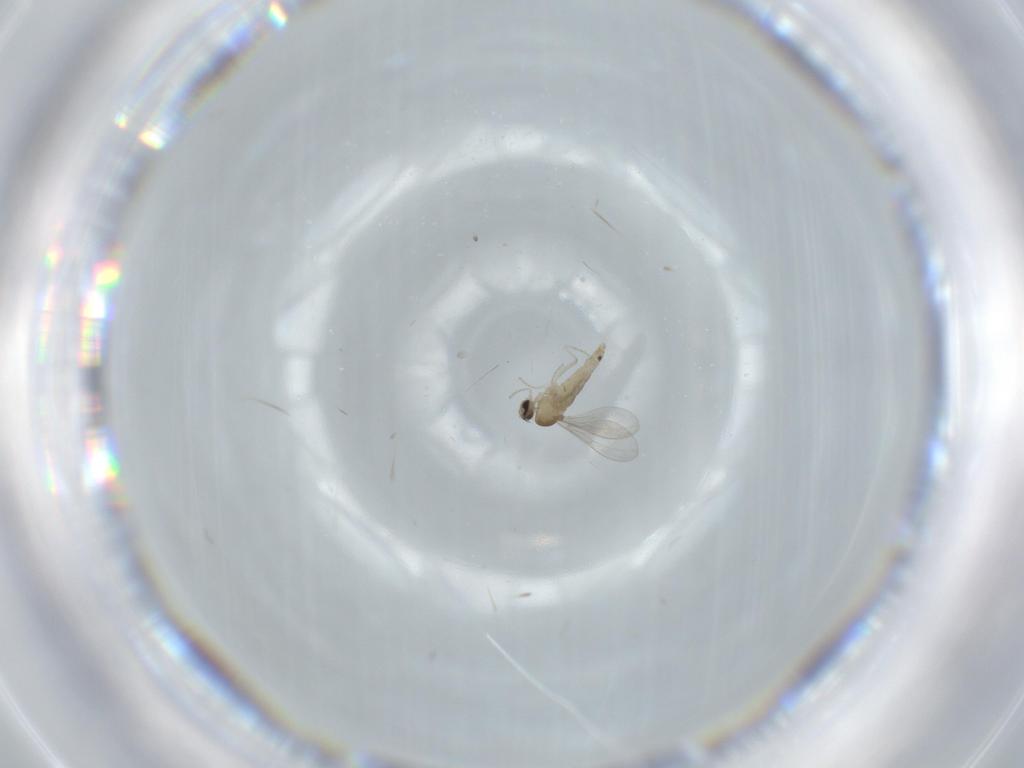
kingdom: Animalia
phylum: Arthropoda
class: Insecta
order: Diptera
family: Cecidomyiidae
